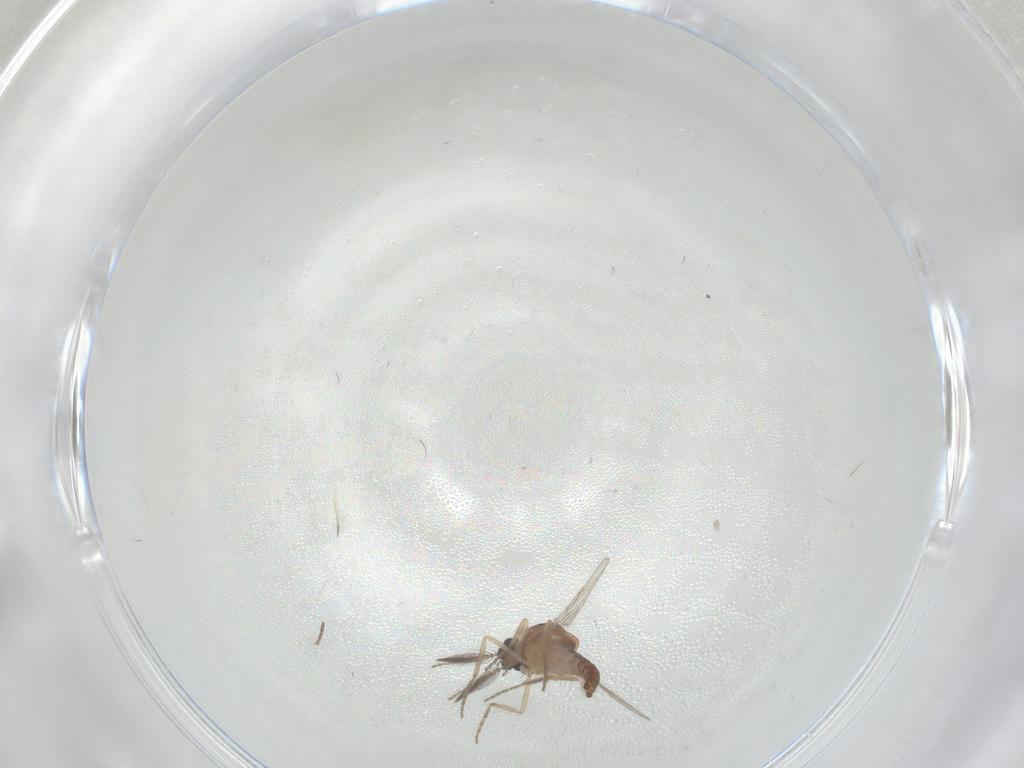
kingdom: Animalia
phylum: Arthropoda
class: Insecta
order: Diptera
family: Ceratopogonidae
